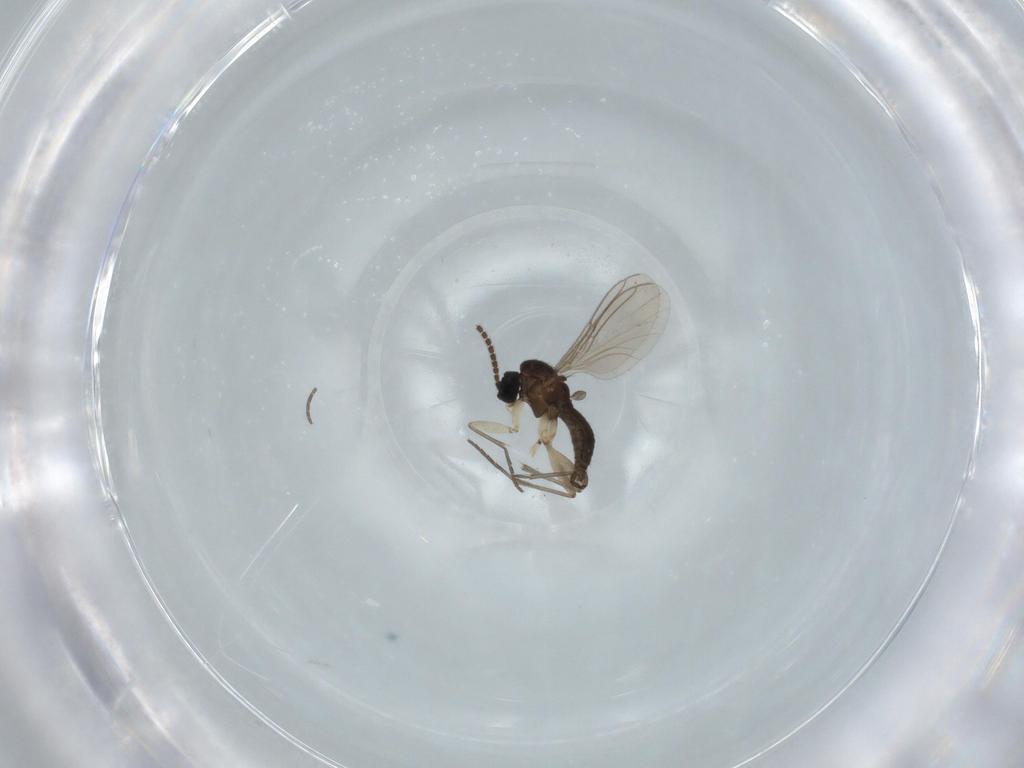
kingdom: Animalia
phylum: Arthropoda
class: Insecta
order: Diptera
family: Sciaridae
